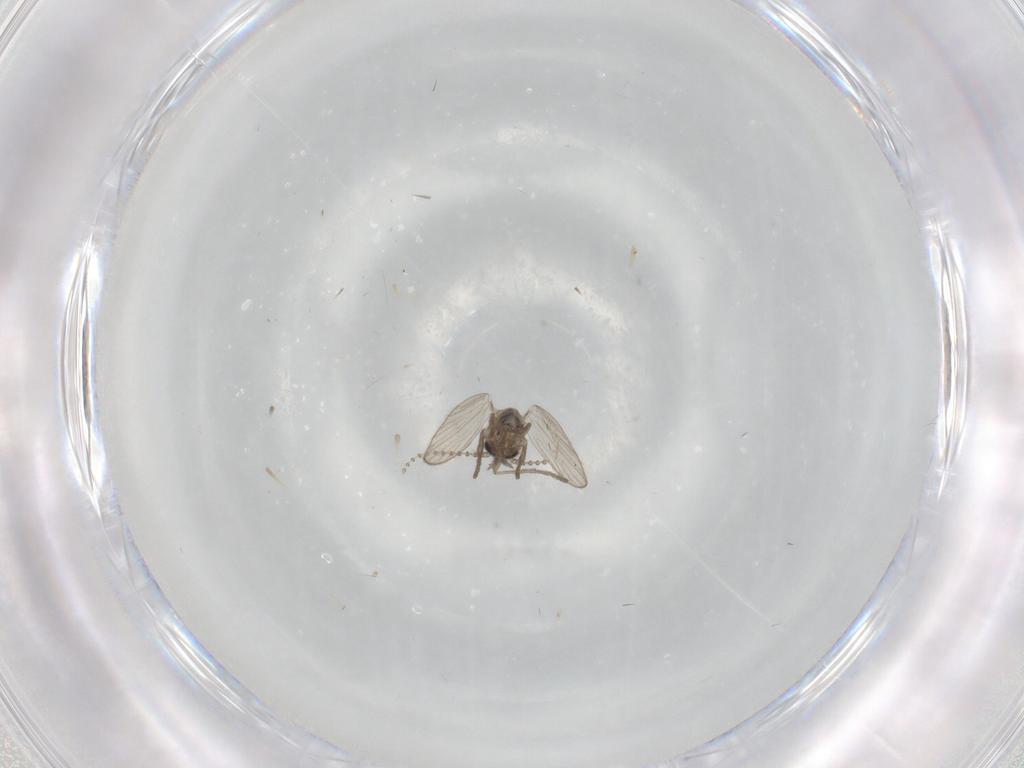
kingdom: Animalia
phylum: Arthropoda
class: Insecta
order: Diptera
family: Psychodidae
